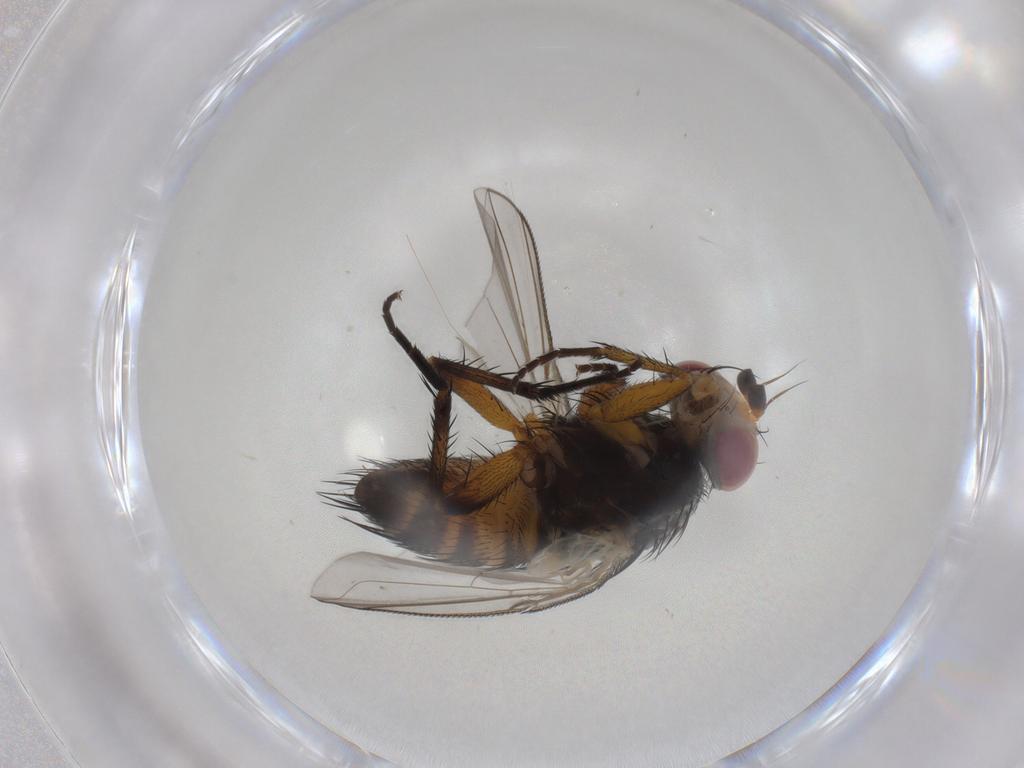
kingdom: Animalia
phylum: Arthropoda
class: Insecta
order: Diptera
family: Chironomidae
